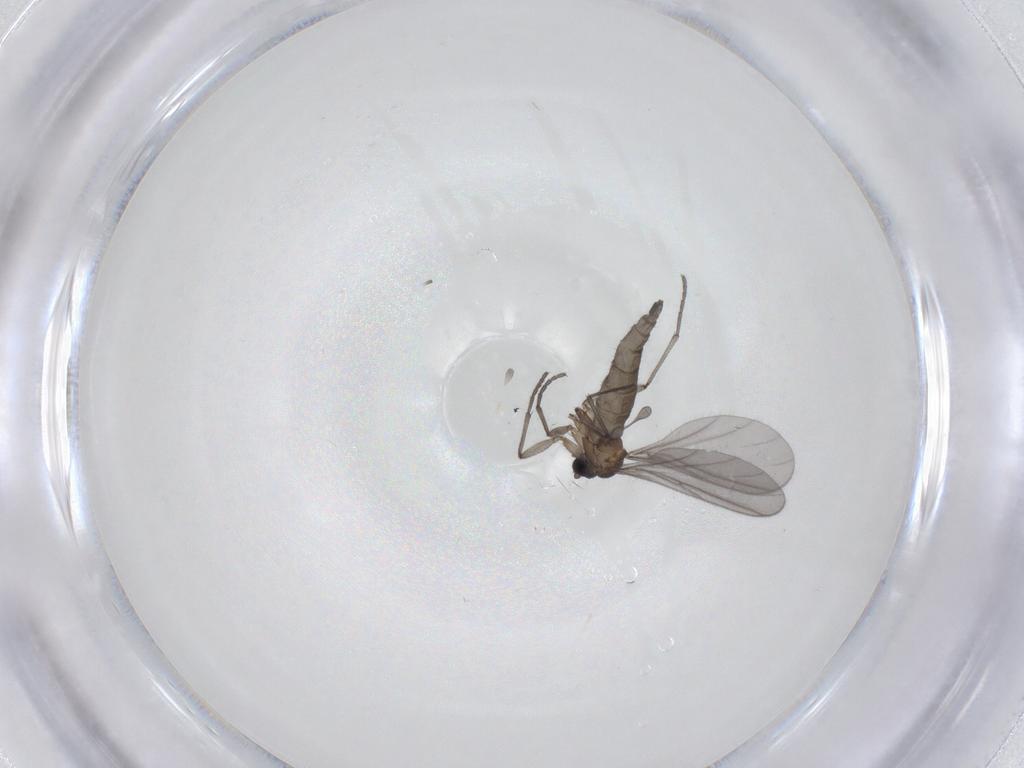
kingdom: Animalia
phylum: Arthropoda
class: Insecta
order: Diptera
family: Sciaridae
